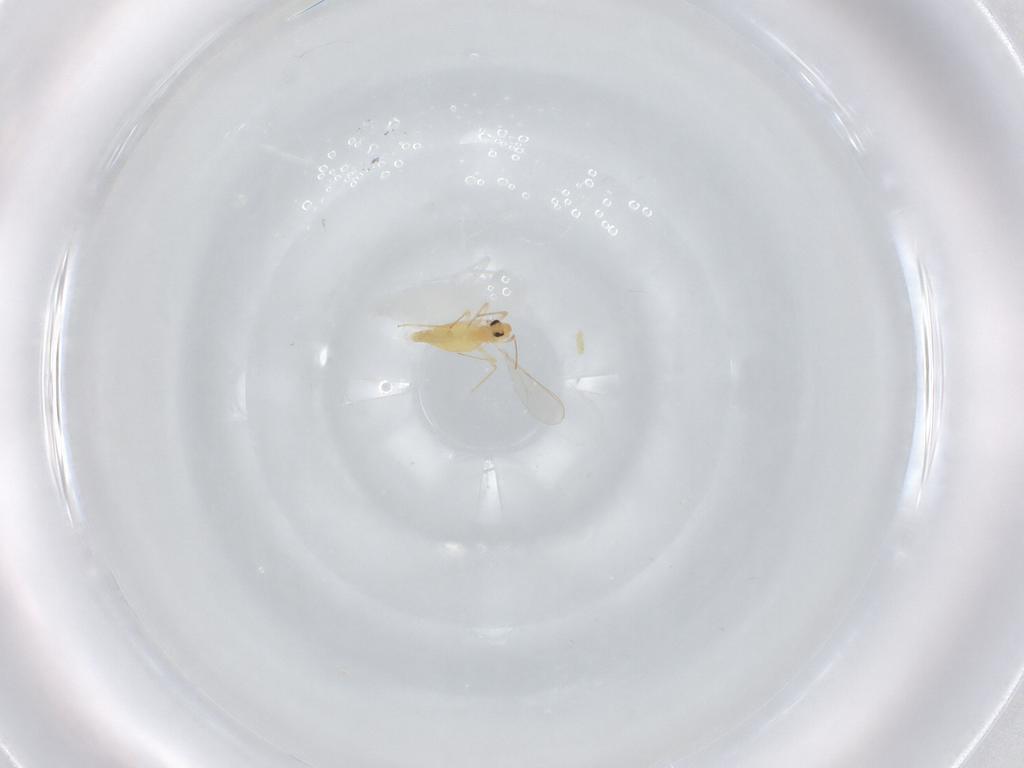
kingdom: Animalia
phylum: Arthropoda
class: Insecta
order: Diptera
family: Chironomidae
